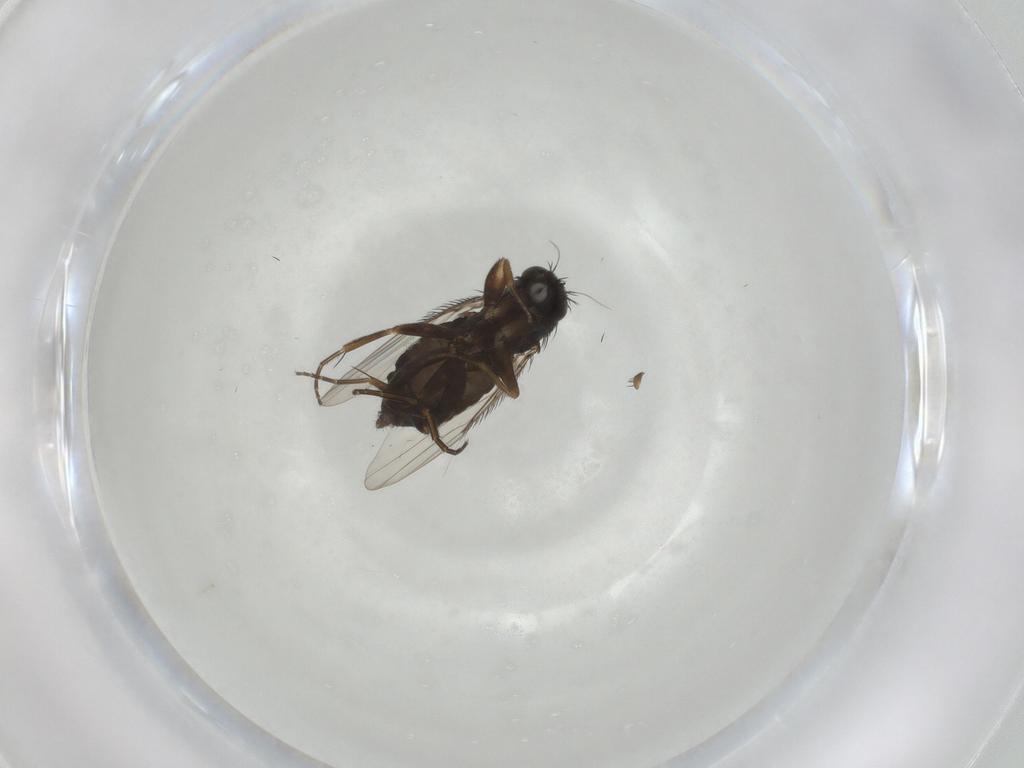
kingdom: Animalia
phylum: Arthropoda
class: Insecta
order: Diptera
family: Phoridae
